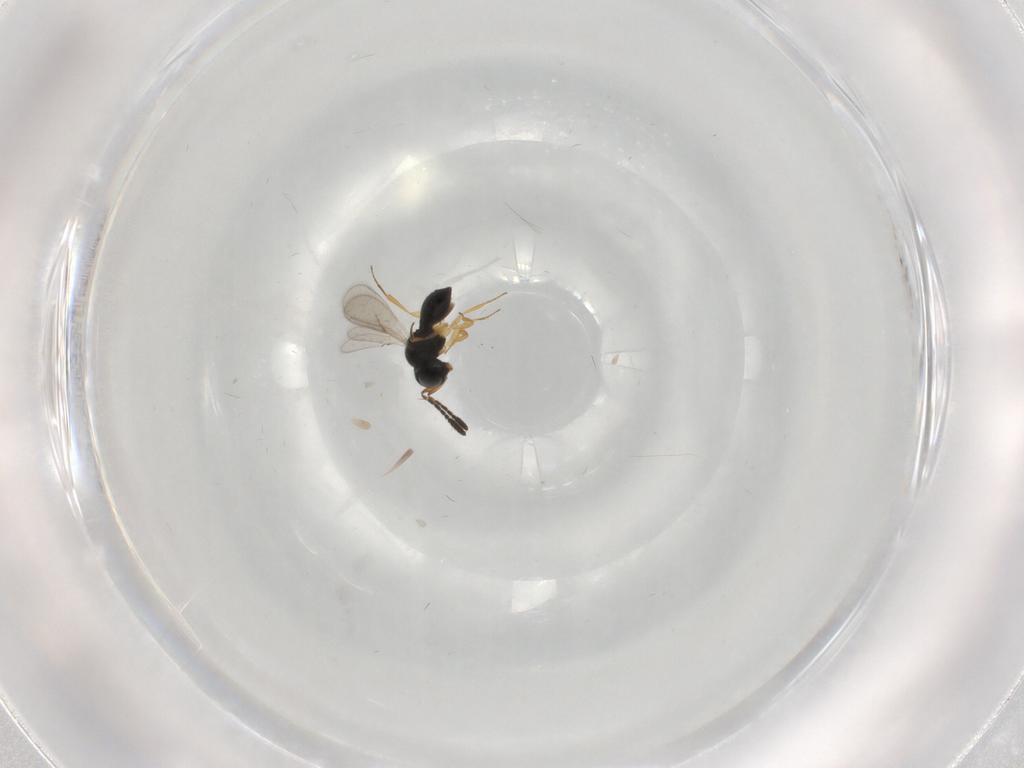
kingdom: Animalia
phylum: Arthropoda
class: Insecta
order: Hymenoptera
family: Scelionidae
